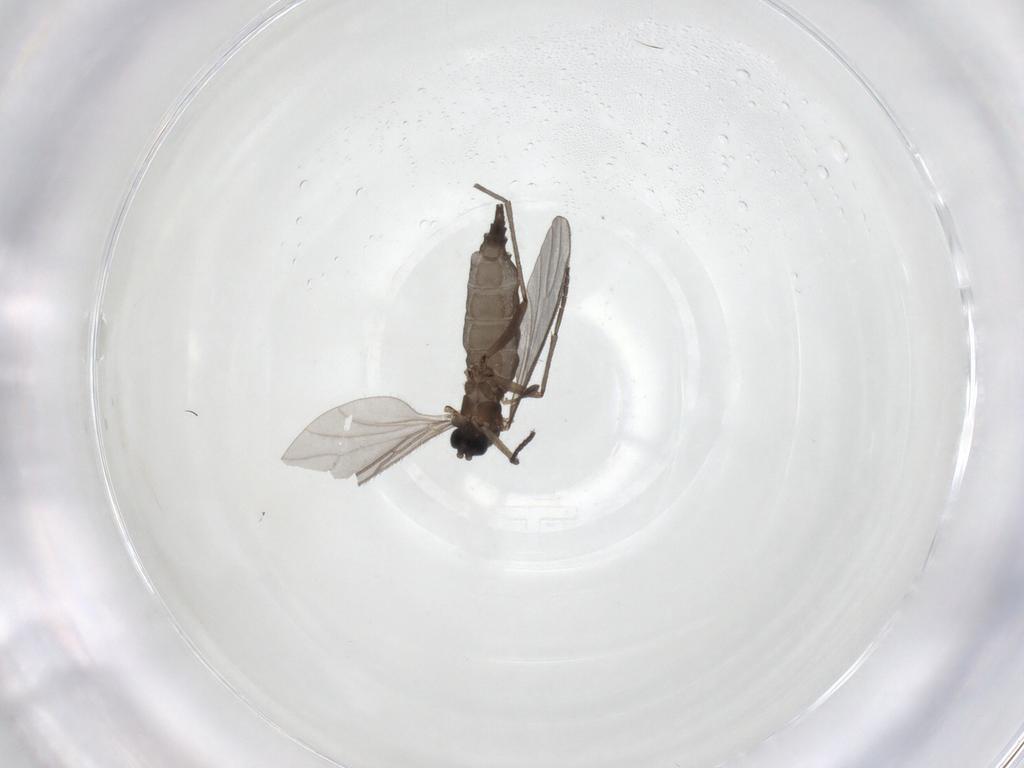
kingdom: Animalia
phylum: Arthropoda
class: Insecta
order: Diptera
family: Sciaridae
